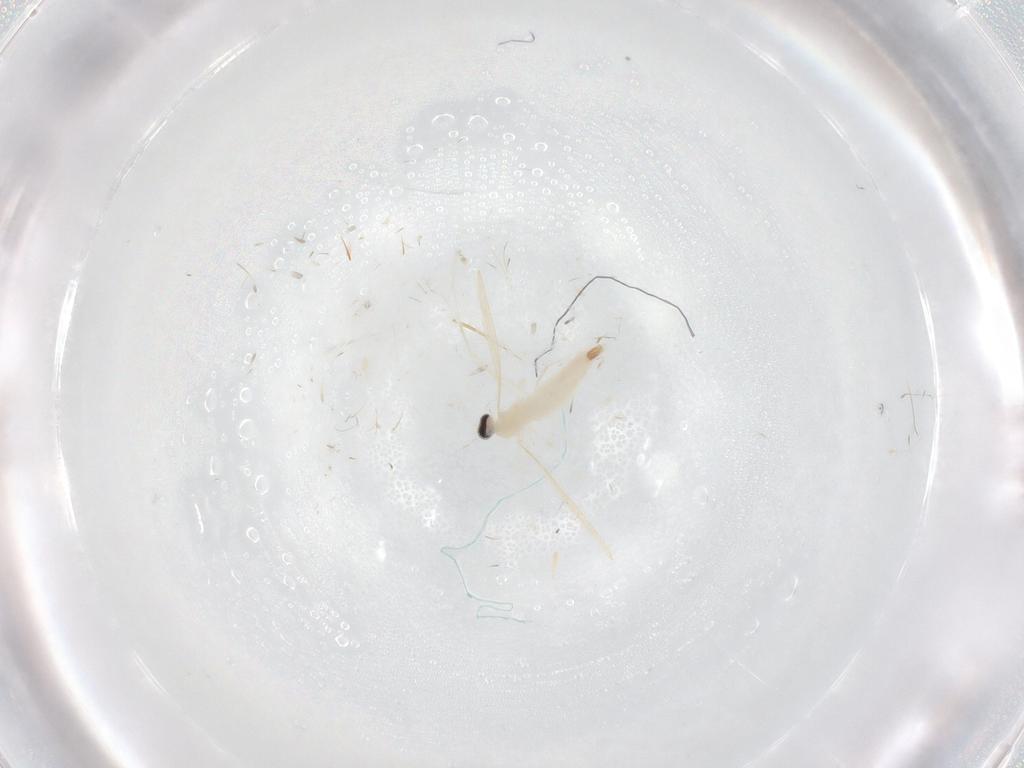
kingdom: Animalia
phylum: Arthropoda
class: Insecta
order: Diptera
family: Cecidomyiidae
